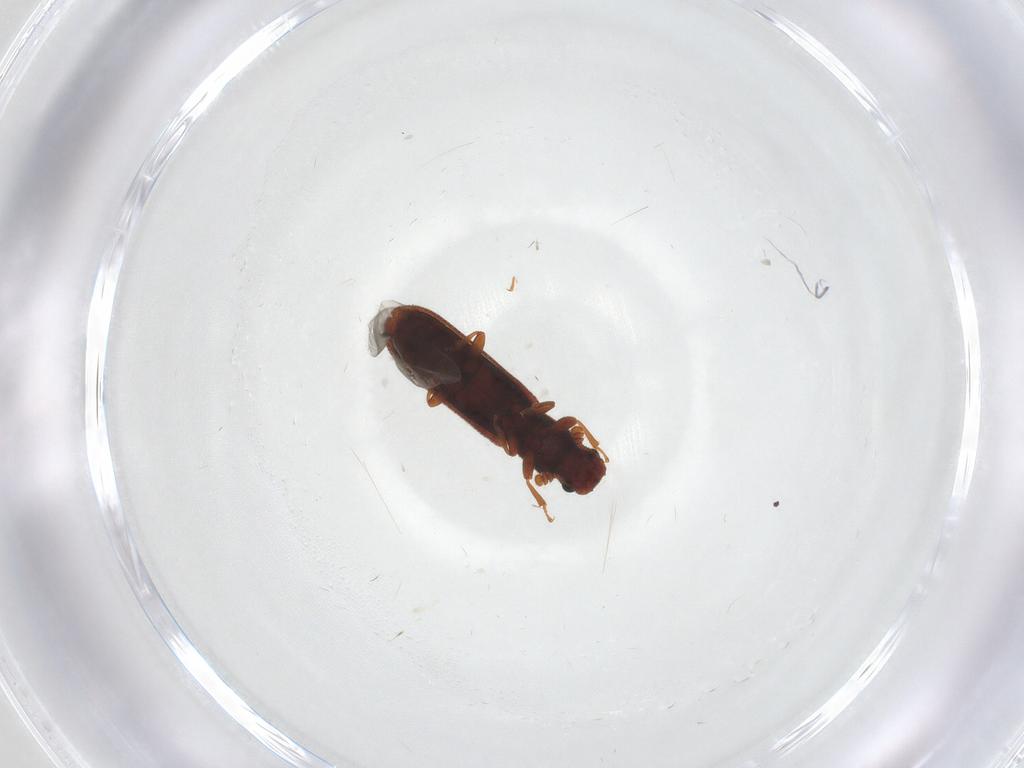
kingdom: Animalia
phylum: Arthropoda
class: Insecta
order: Coleoptera
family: Zopheridae
